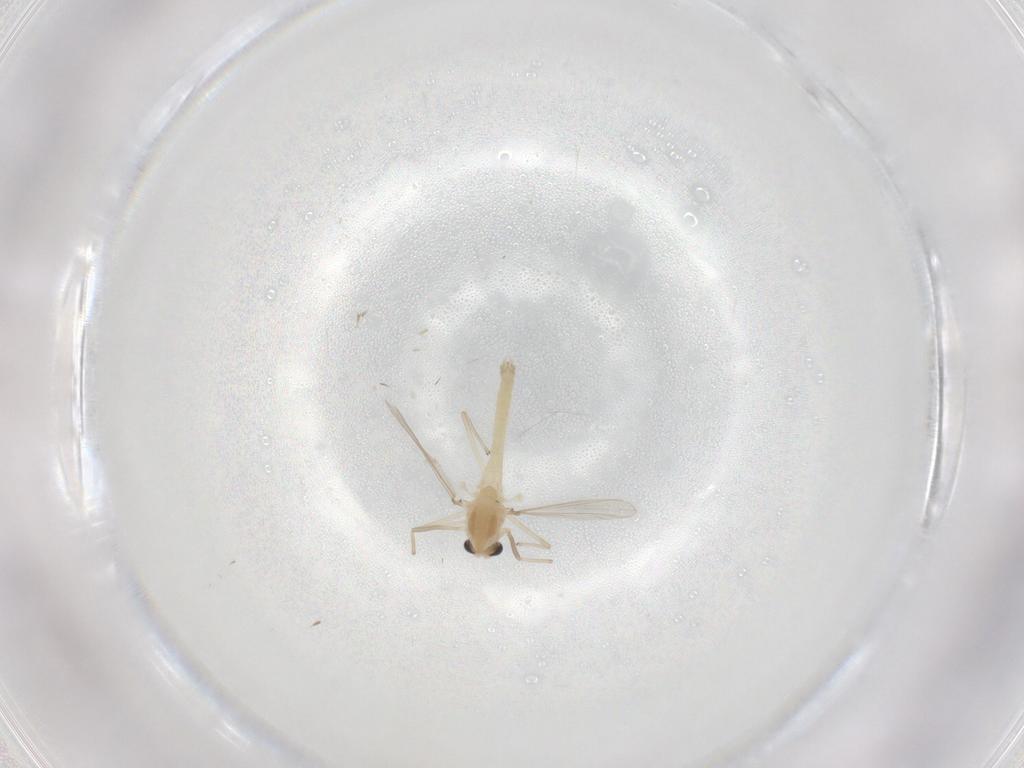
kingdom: Animalia
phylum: Arthropoda
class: Insecta
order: Diptera
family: Chironomidae
